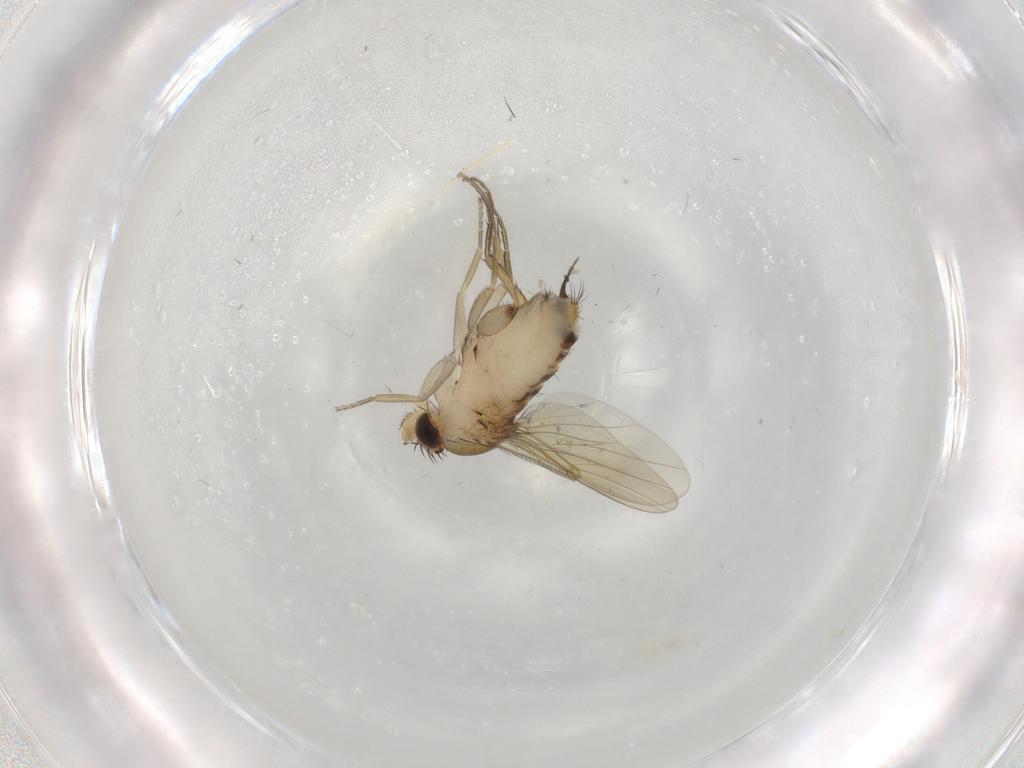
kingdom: Animalia
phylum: Arthropoda
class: Insecta
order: Diptera
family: Phoridae
